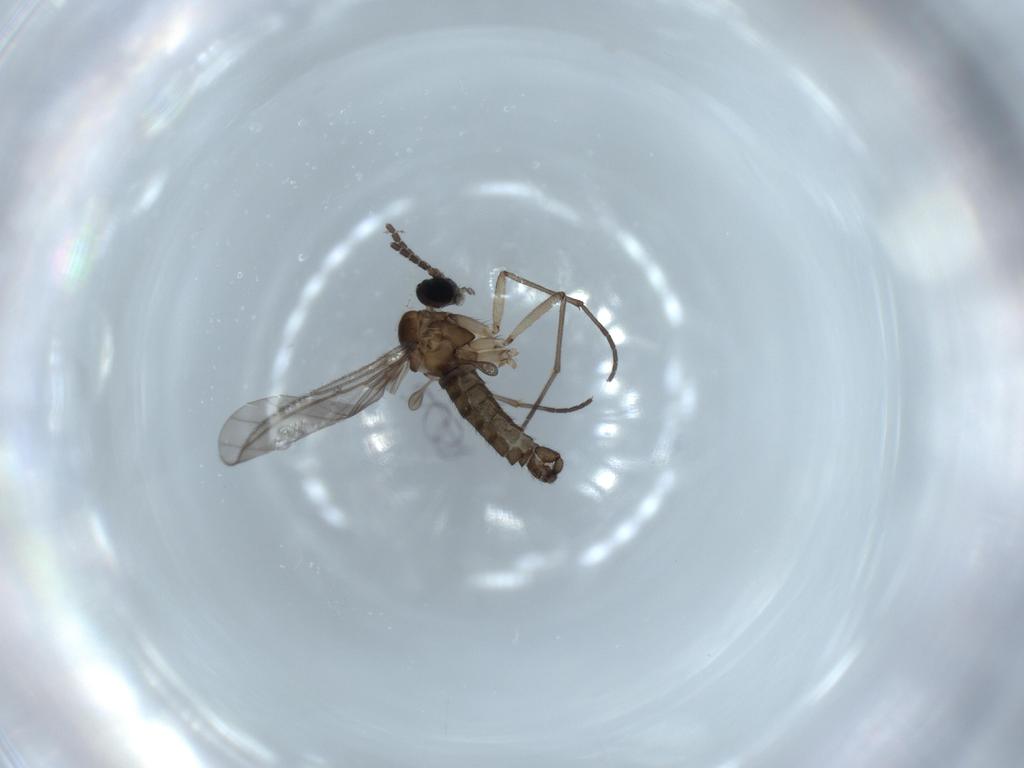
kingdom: Animalia
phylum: Arthropoda
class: Insecta
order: Diptera
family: Sciaridae
